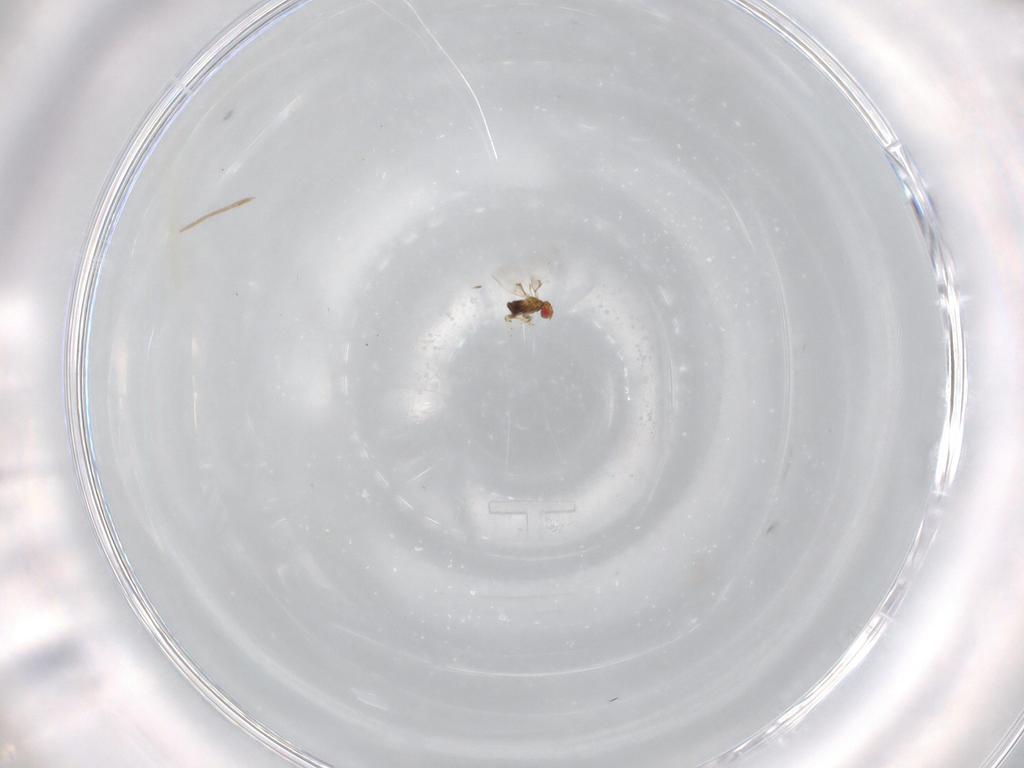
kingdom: Animalia
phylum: Arthropoda
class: Insecta
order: Hymenoptera
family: Trichogrammatidae
